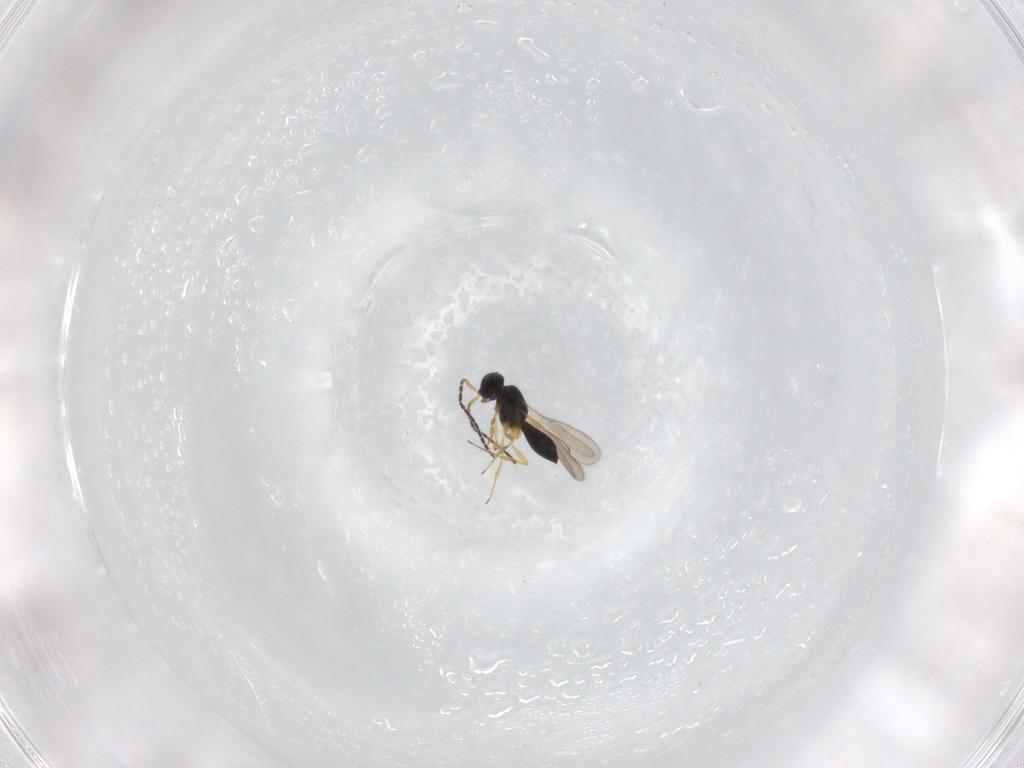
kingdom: Animalia
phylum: Arthropoda
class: Insecta
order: Hymenoptera
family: Scelionidae
